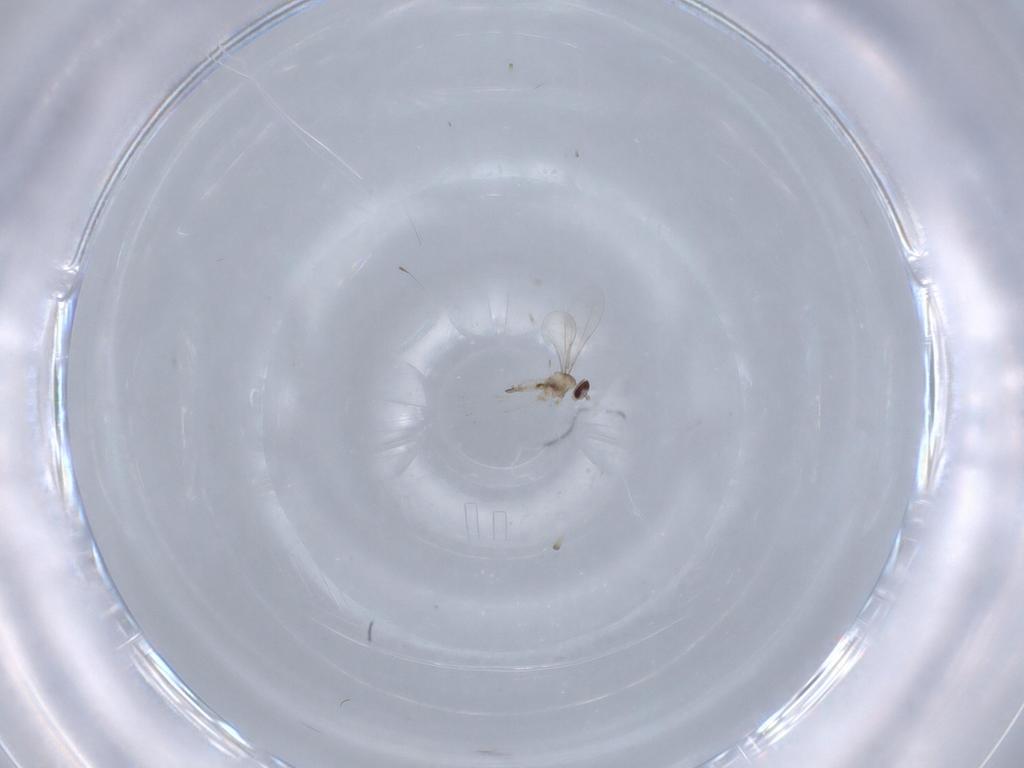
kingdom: Animalia
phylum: Arthropoda
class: Insecta
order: Diptera
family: Cecidomyiidae
